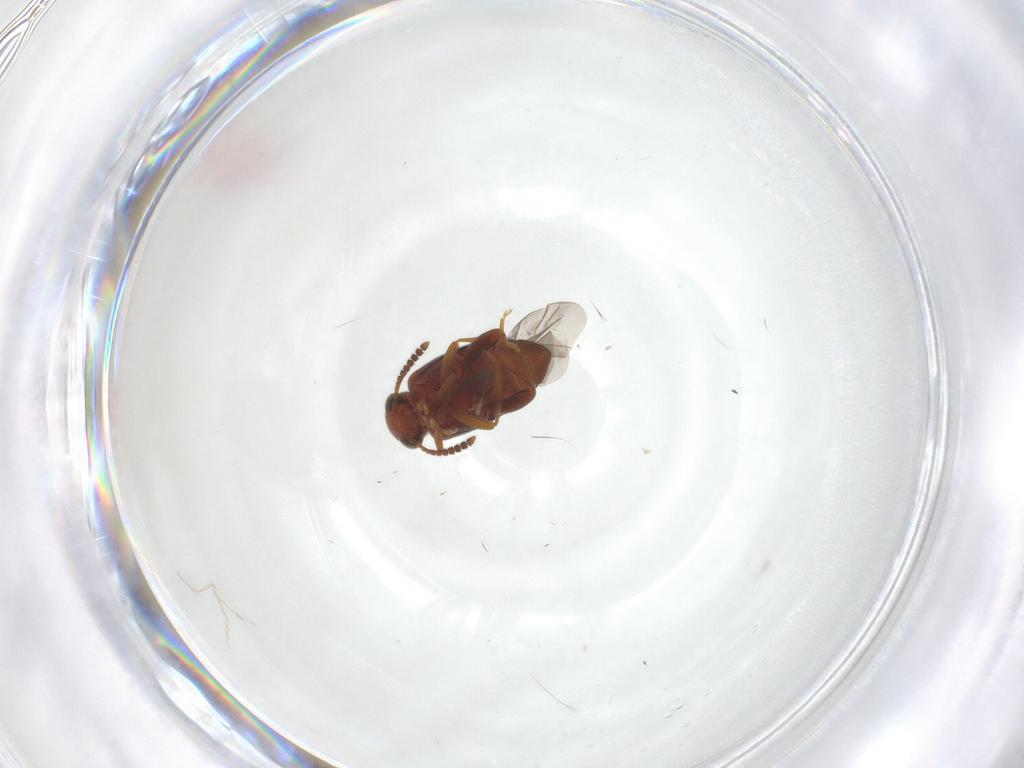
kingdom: Animalia
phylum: Arthropoda
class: Insecta
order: Coleoptera
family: Aderidae
